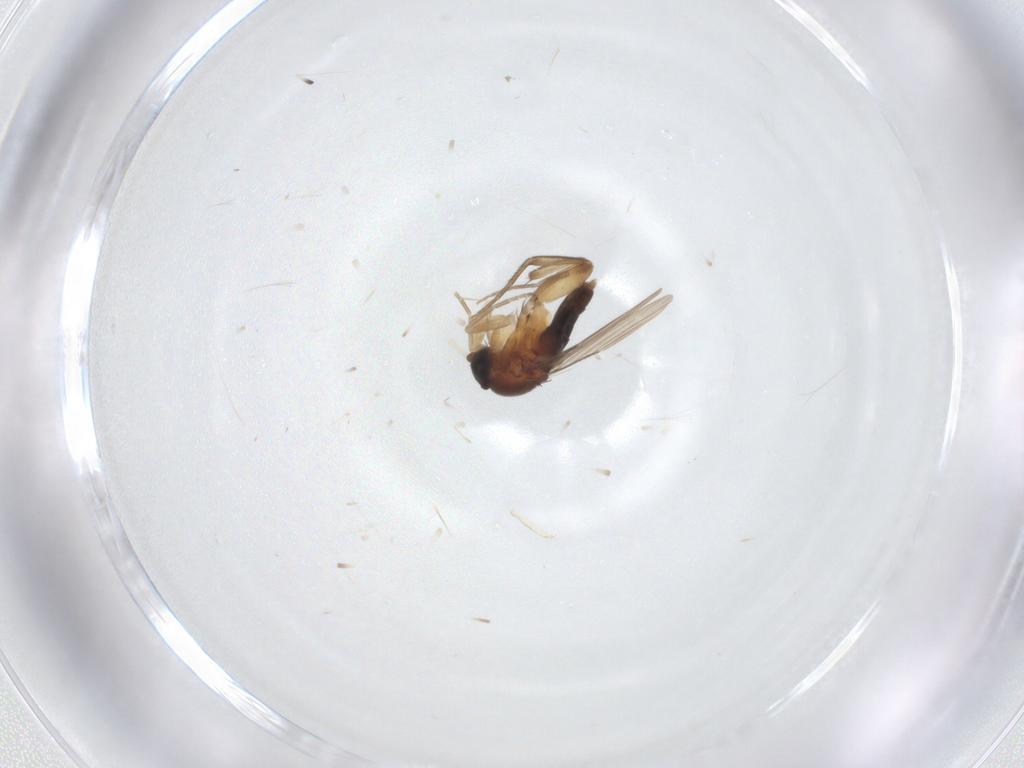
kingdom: Animalia
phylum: Arthropoda
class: Insecta
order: Diptera
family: Phoridae
